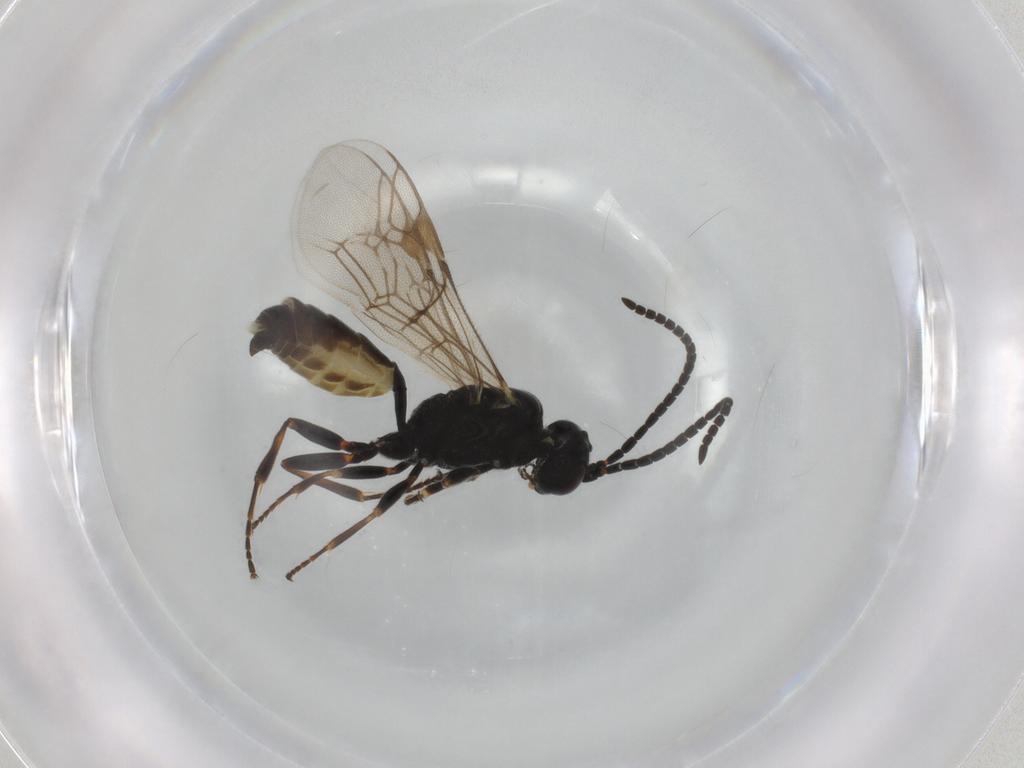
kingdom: Animalia
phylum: Arthropoda
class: Insecta
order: Hymenoptera
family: Ichneumonidae
